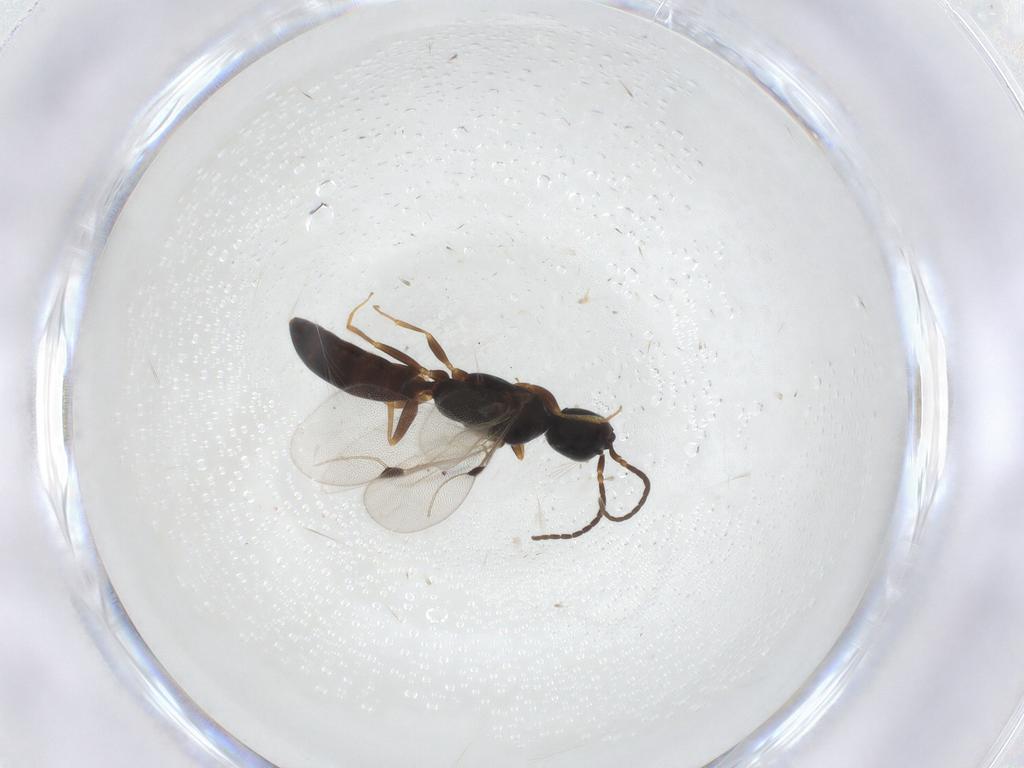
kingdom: Animalia
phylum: Arthropoda
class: Insecta
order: Hymenoptera
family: Bethylidae
